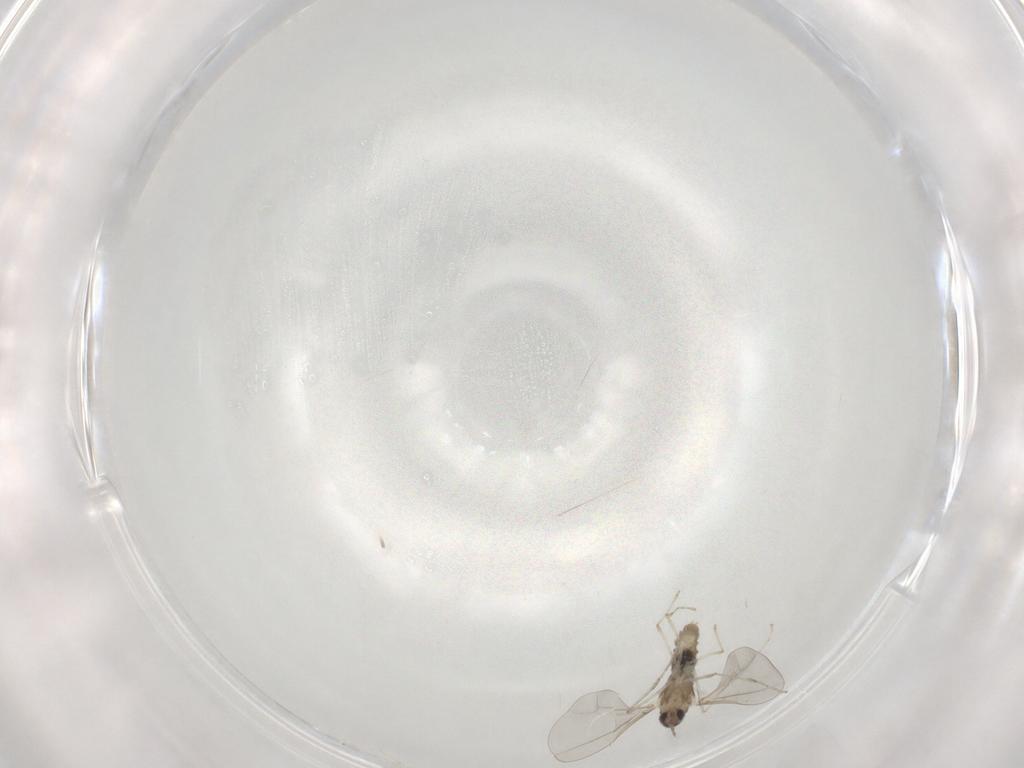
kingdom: Animalia
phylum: Arthropoda
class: Insecta
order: Diptera
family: Cecidomyiidae
